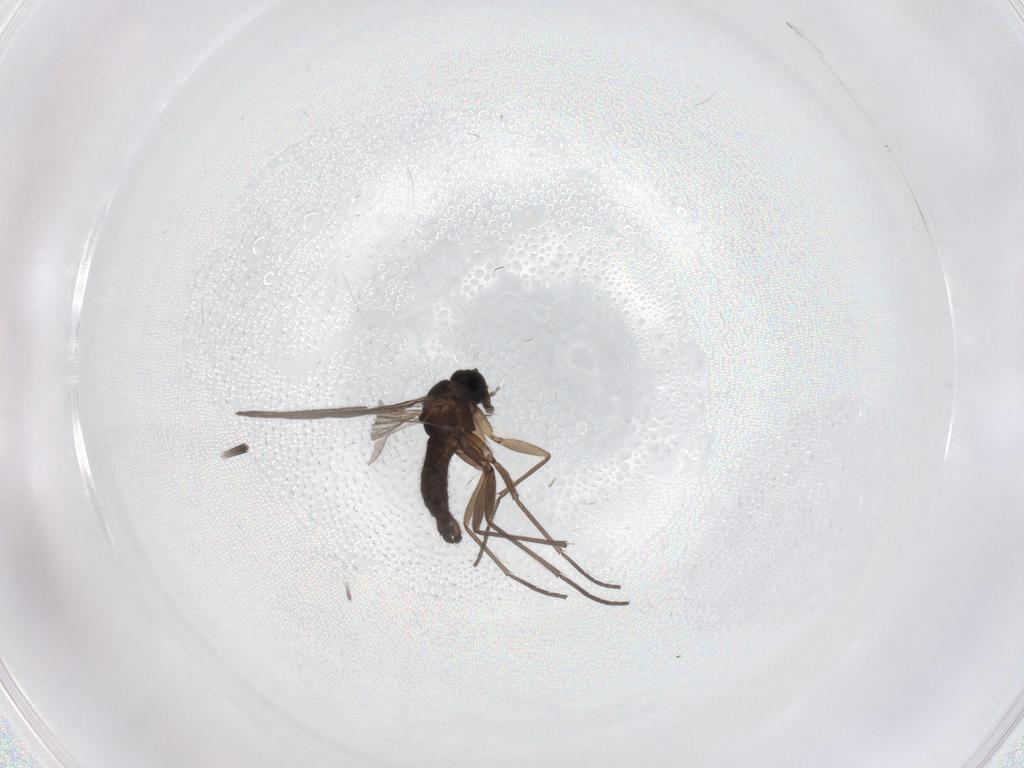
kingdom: Animalia
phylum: Arthropoda
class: Insecta
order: Diptera
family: Sciaridae
